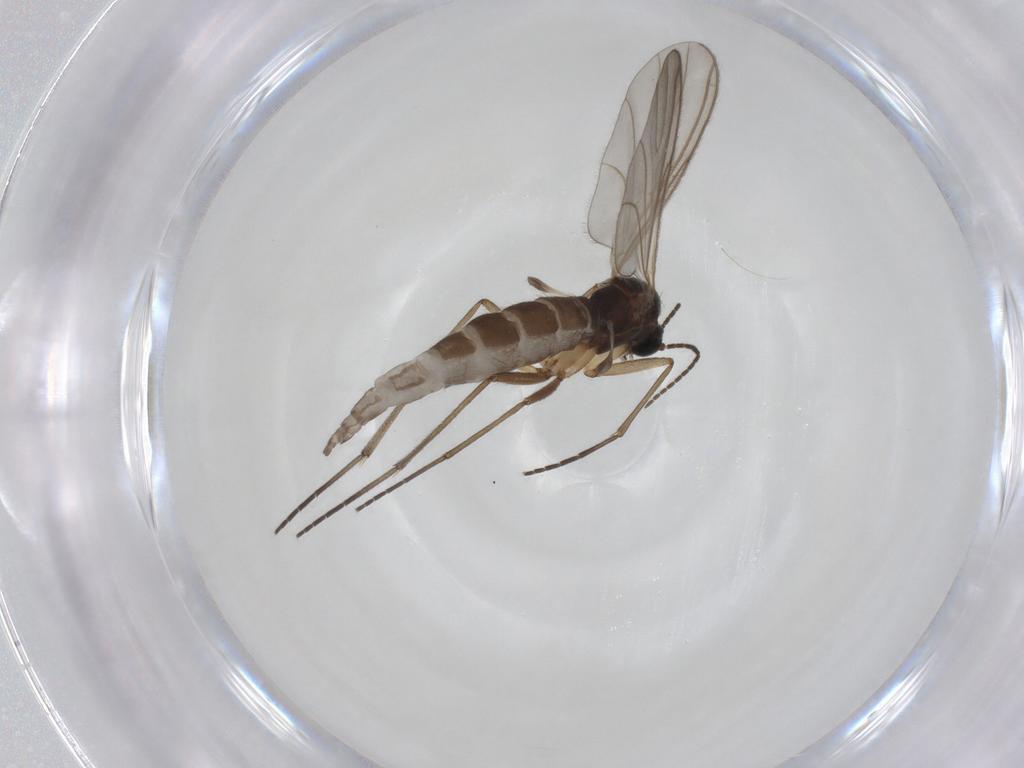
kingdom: Animalia
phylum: Arthropoda
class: Insecta
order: Diptera
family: Sciaridae
